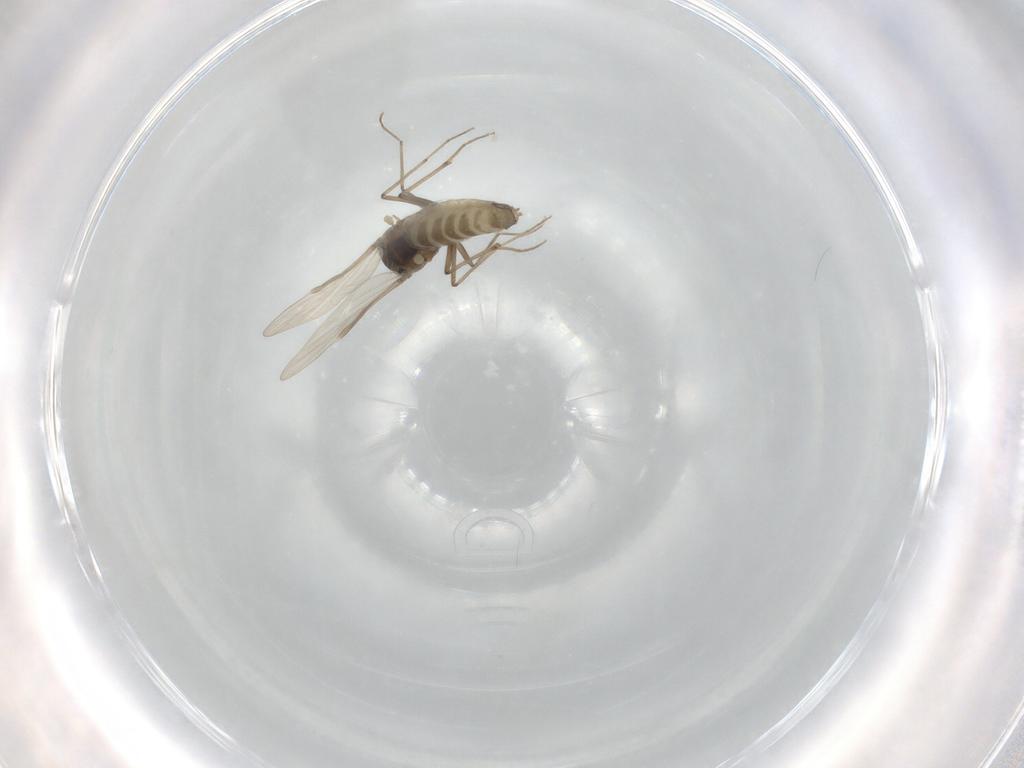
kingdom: Animalia
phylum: Arthropoda
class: Insecta
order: Diptera
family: Chironomidae
